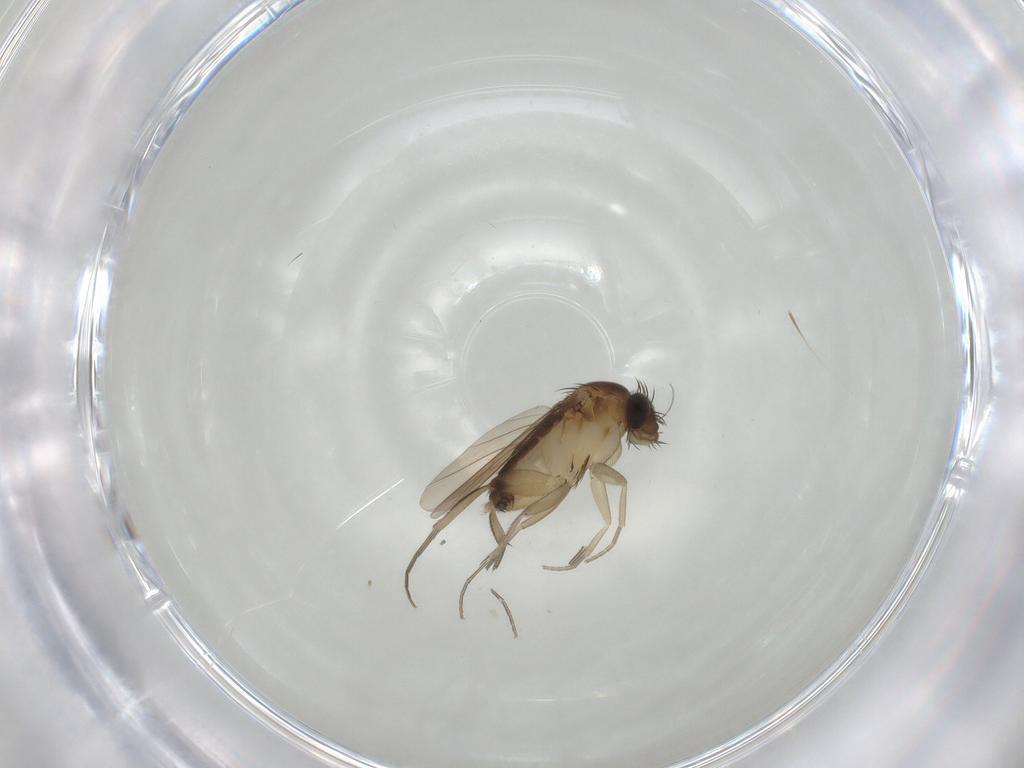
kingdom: Animalia
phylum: Arthropoda
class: Insecta
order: Diptera
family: Phoridae
